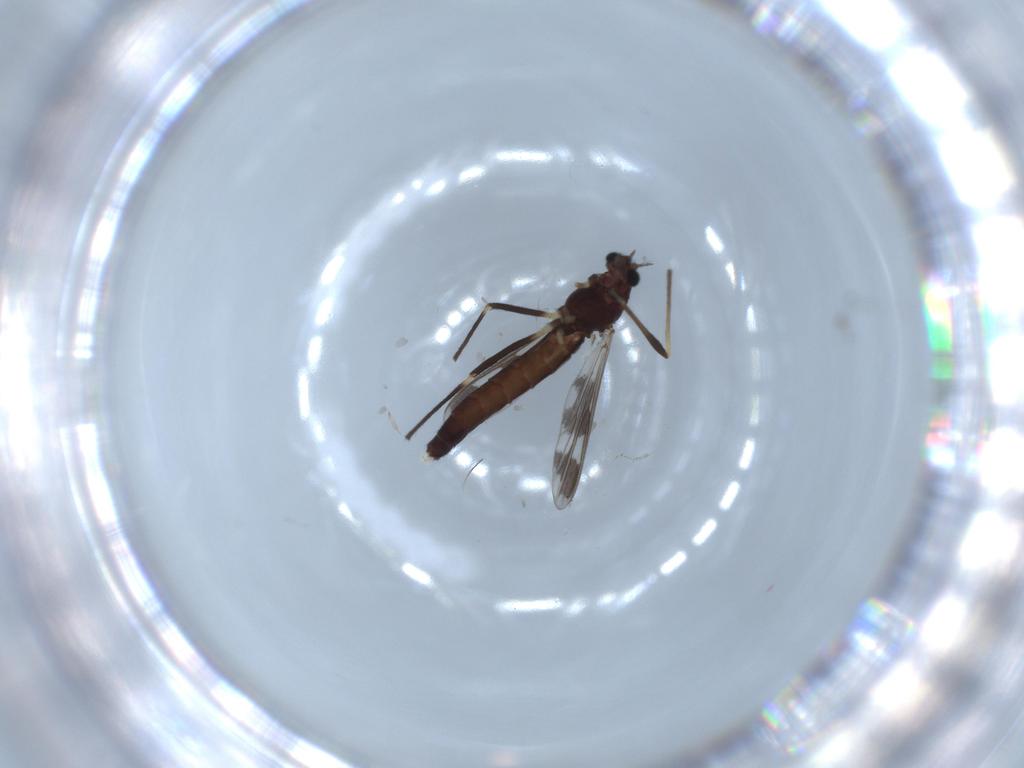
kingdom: Animalia
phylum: Arthropoda
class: Insecta
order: Diptera
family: Chironomidae
